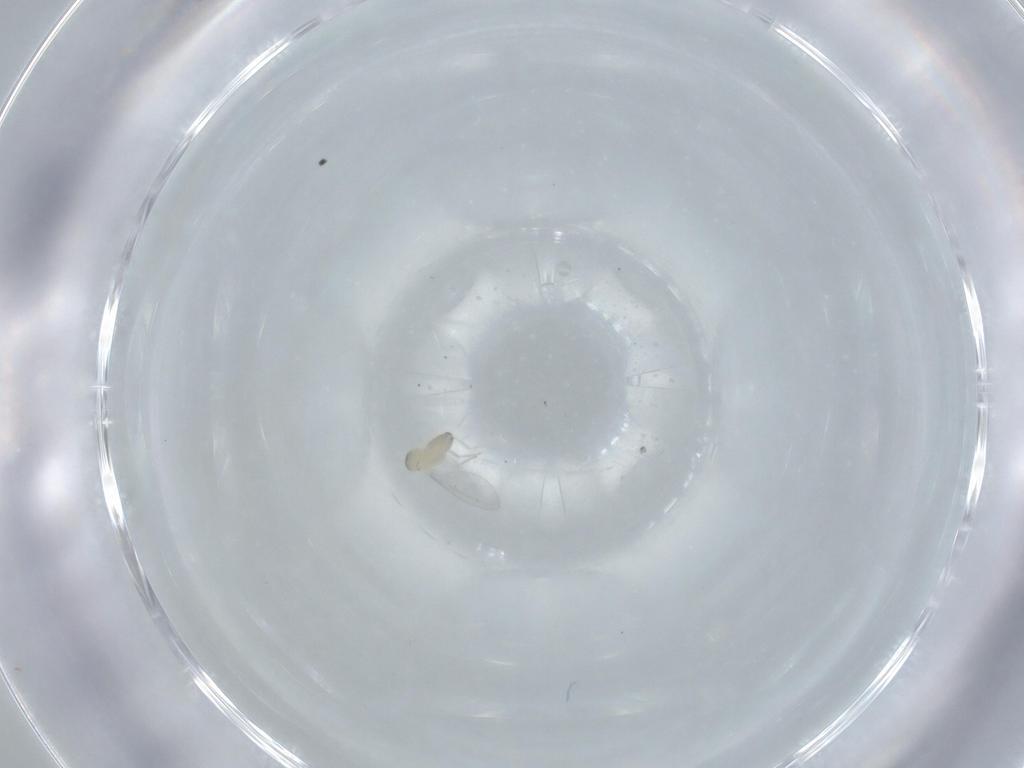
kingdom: Animalia
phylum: Arthropoda
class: Insecta
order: Diptera
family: Cecidomyiidae
